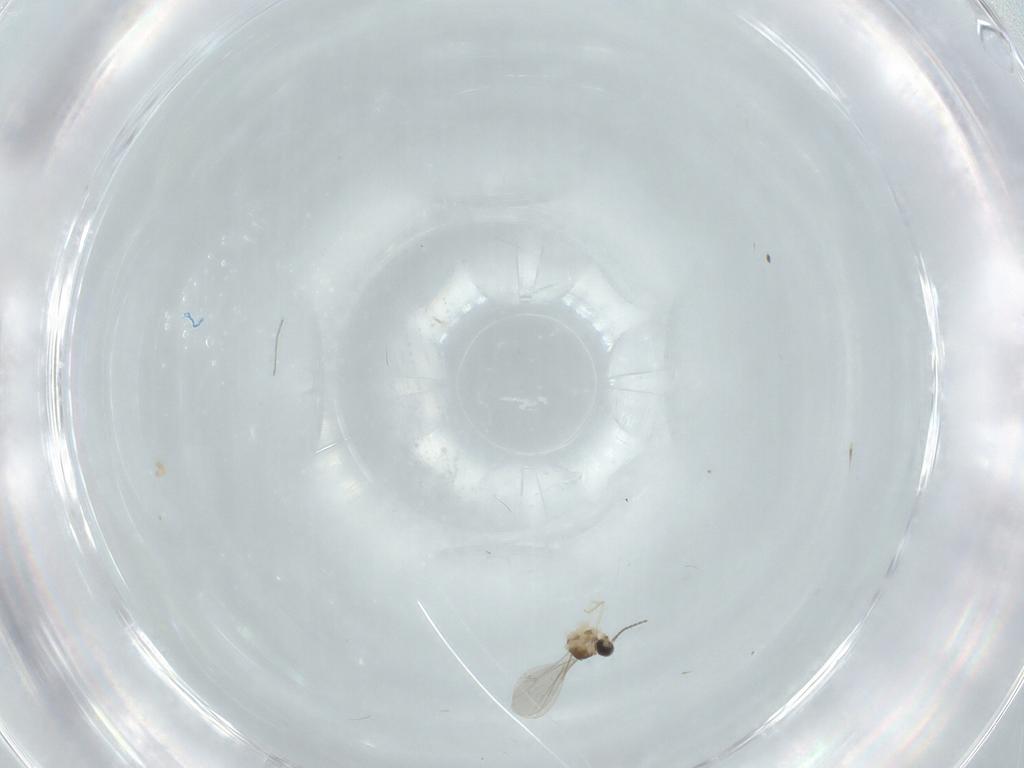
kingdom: Animalia
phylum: Arthropoda
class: Insecta
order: Diptera
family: Cecidomyiidae
